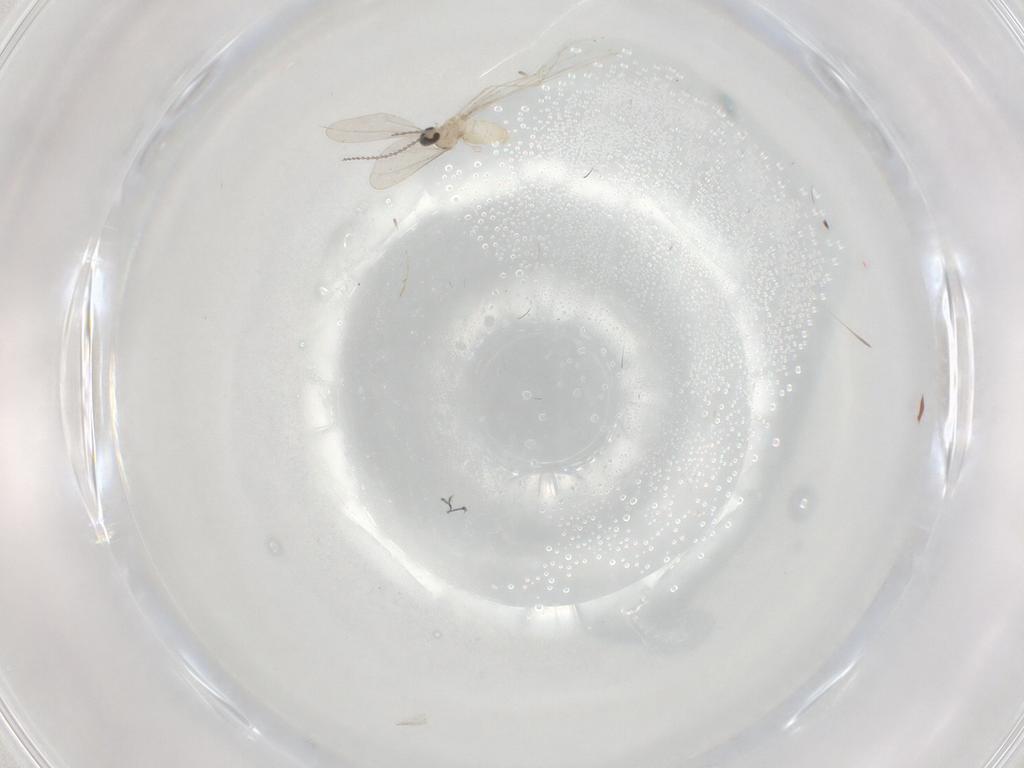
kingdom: Animalia
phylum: Arthropoda
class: Insecta
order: Diptera
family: Cecidomyiidae
